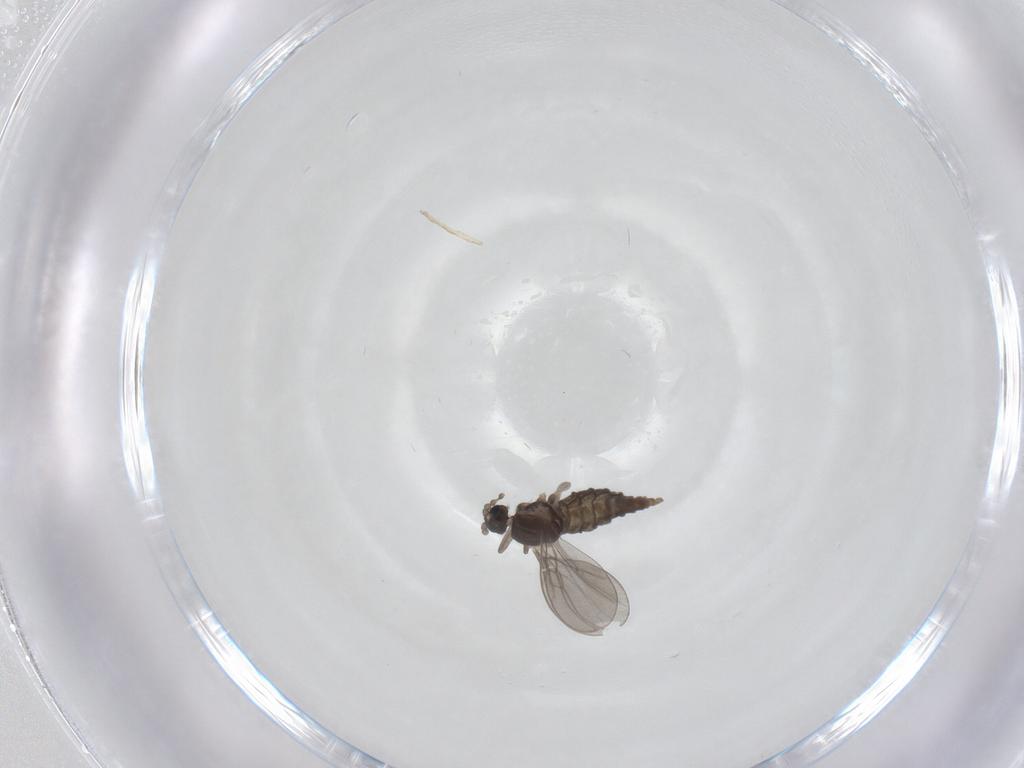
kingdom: Animalia
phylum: Arthropoda
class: Insecta
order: Diptera
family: Cecidomyiidae
